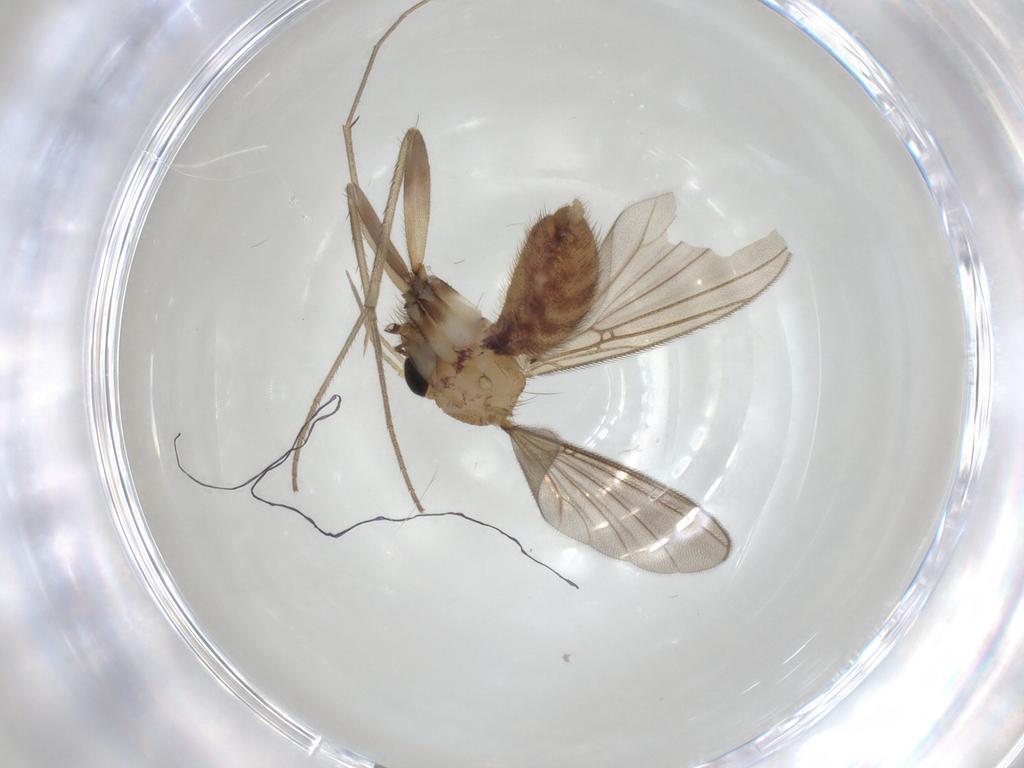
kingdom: Animalia
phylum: Arthropoda
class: Insecta
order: Diptera
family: Mycetophilidae
